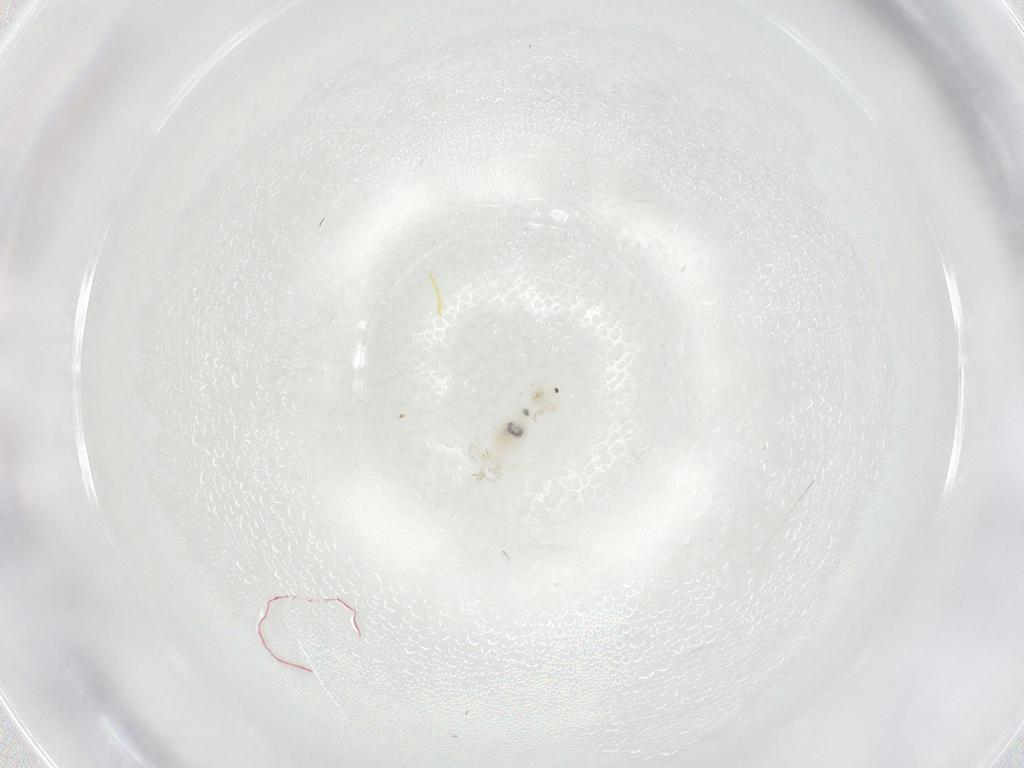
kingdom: Animalia
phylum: Arthropoda
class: Insecta
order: Psocodea
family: Stenopsocidae
